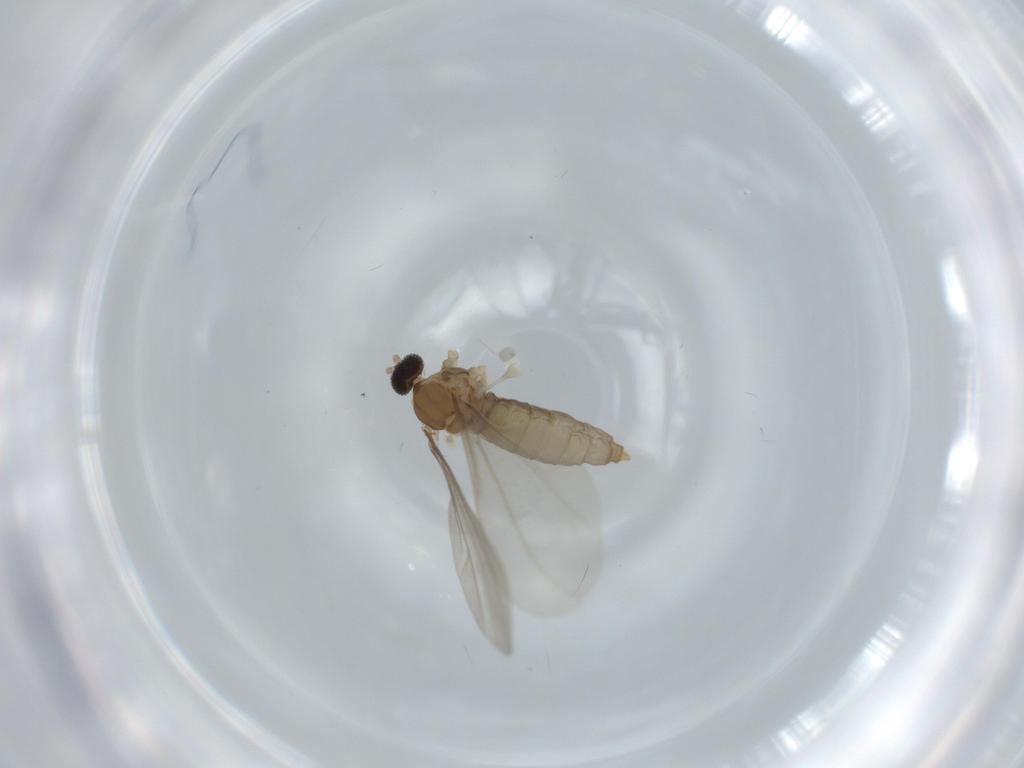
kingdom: Animalia
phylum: Arthropoda
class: Insecta
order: Diptera
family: Cecidomyiidae
